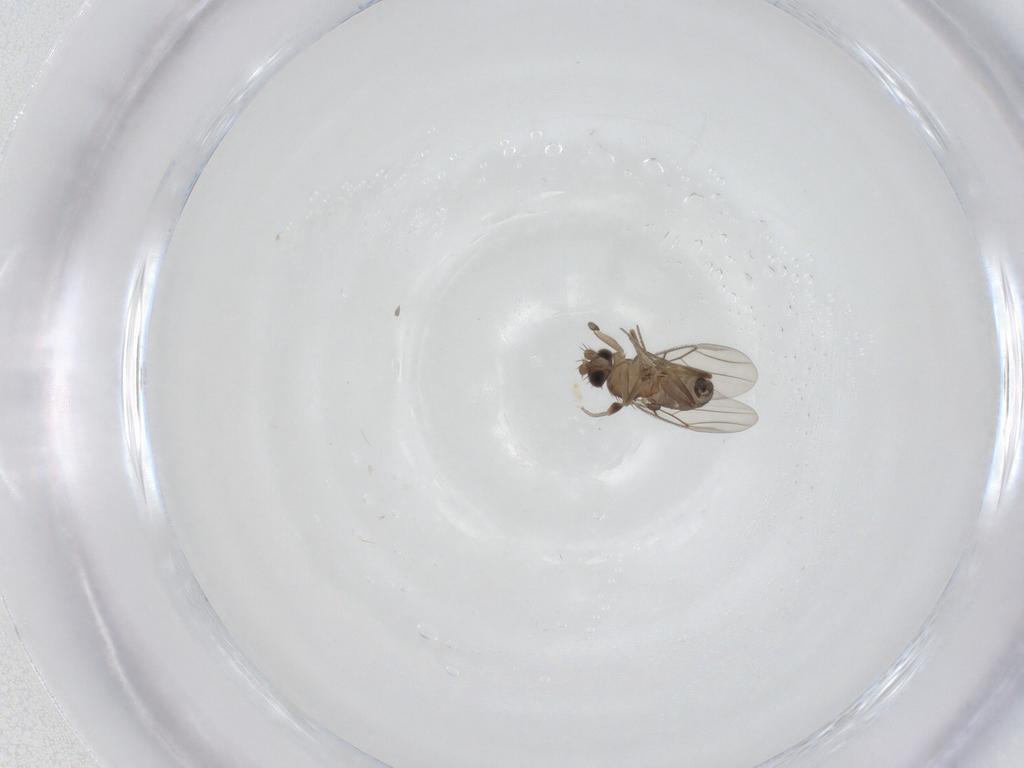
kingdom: Animalia
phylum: Arthropoda
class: Insecta
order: Diptera
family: Phoridae
